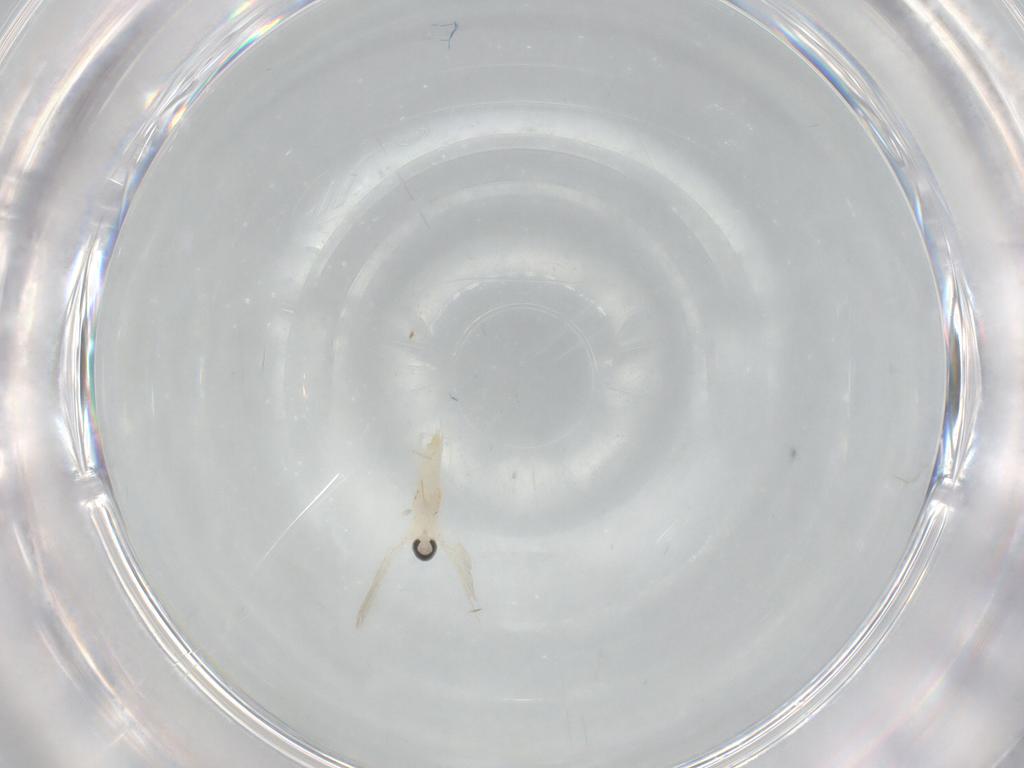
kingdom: Animalia
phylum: Arthropoda
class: Insecta
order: Diptera
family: Cecidomyiidae
